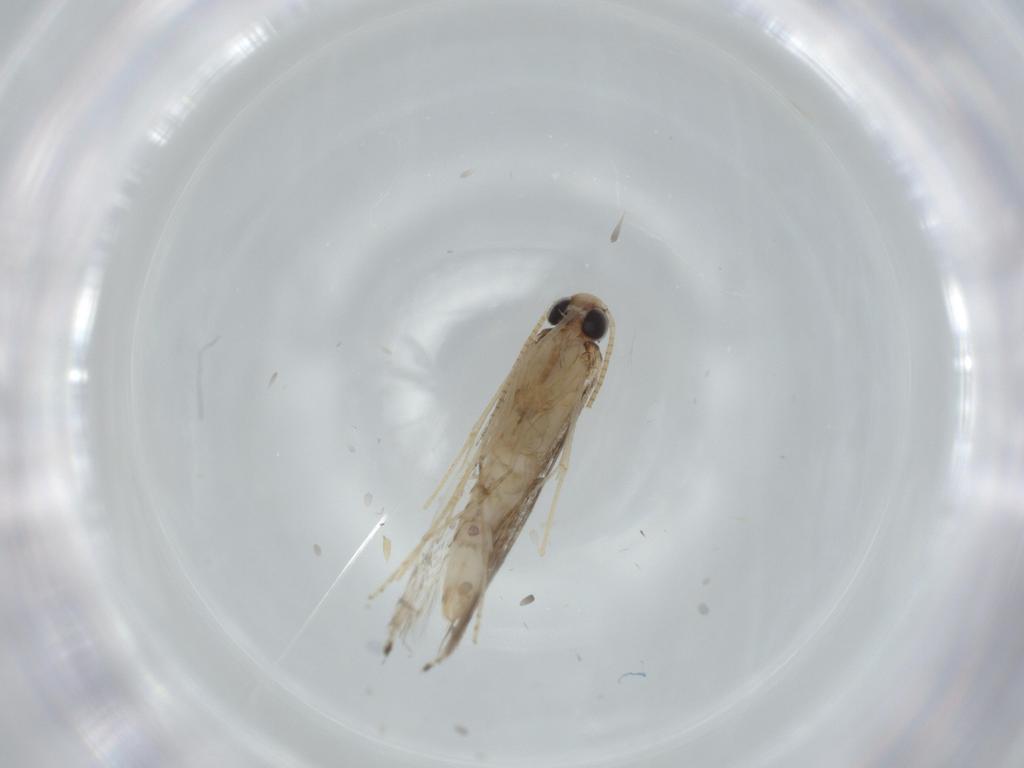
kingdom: Animalia
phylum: Arthropoda
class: Insecta
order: Lepidoptera
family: Gracillariidae
